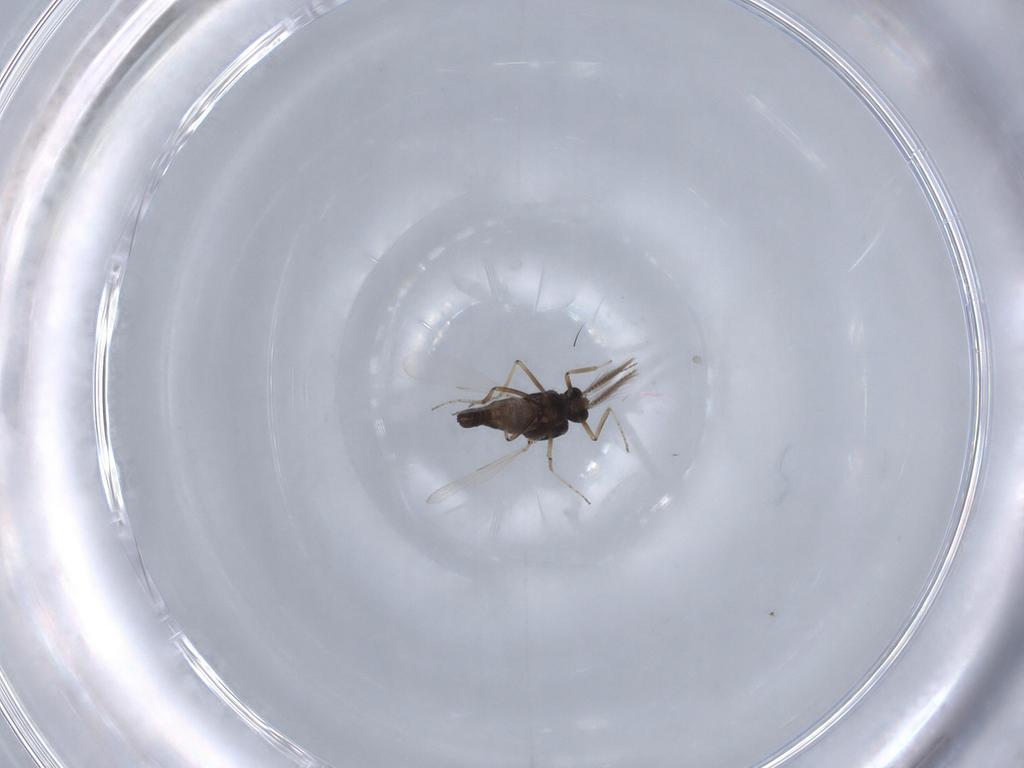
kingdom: Animalia
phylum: Arthropoda
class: Insecta
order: Diptera
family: Ceratopogonidae
